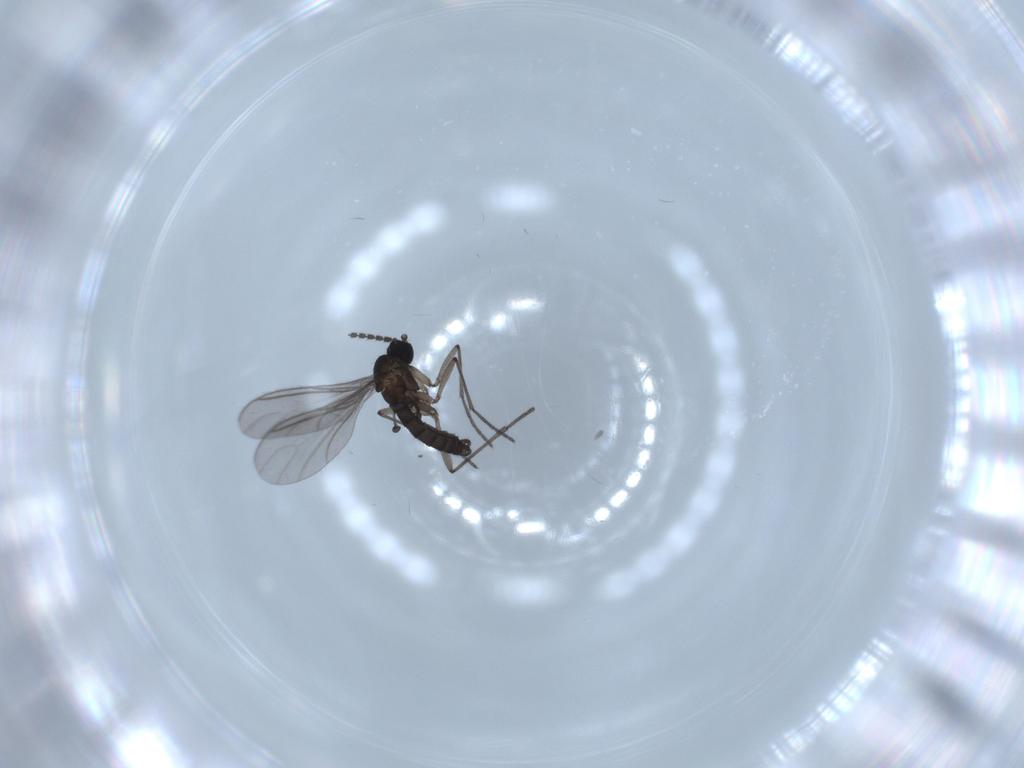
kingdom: Animalia
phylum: Arthropoda
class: Insecta
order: Diptera
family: Sciaridae
